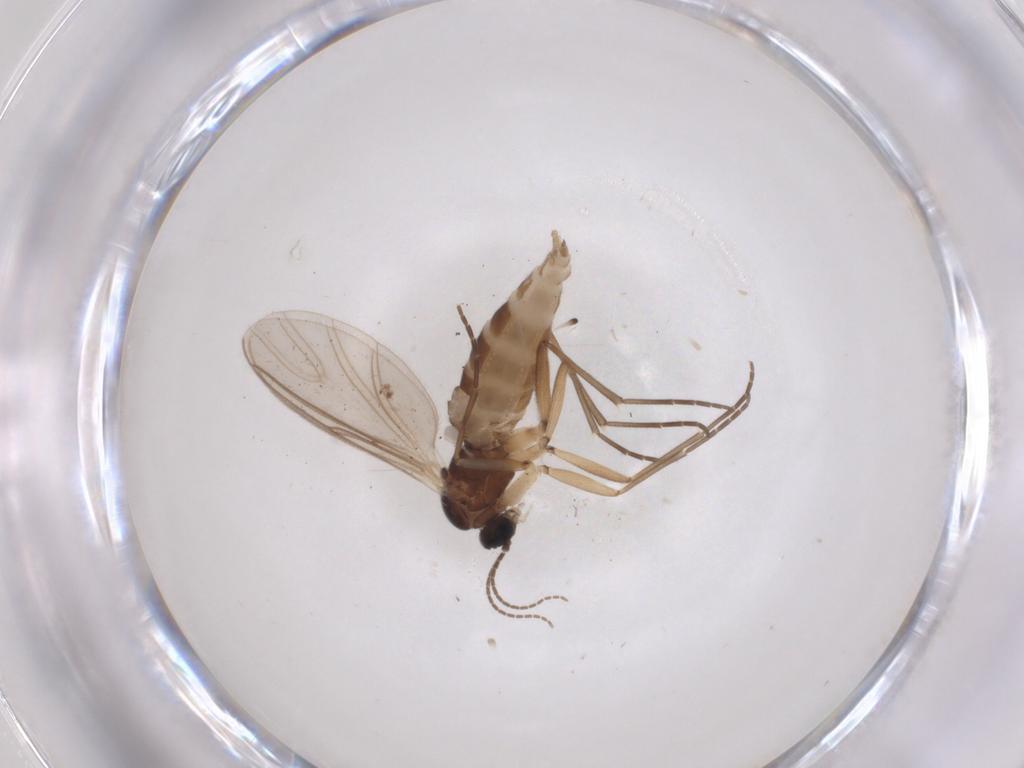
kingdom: Animalia
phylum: Arthropoda
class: Insecta
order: Diptera
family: Sciaridae
